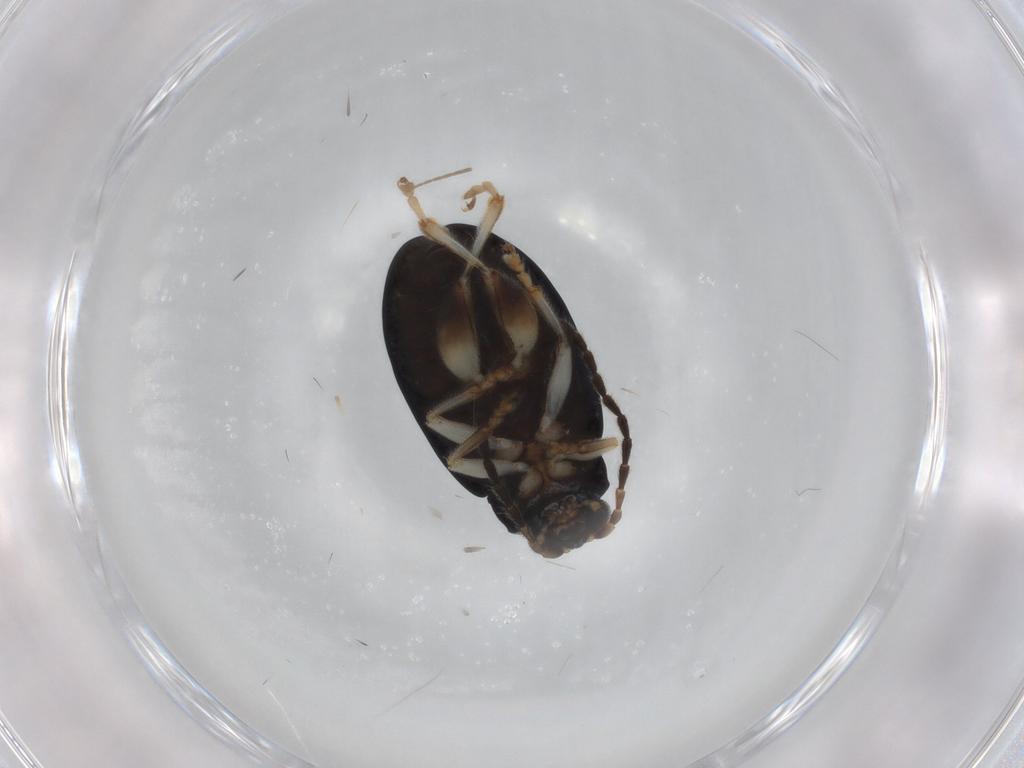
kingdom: Animalia
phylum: Arthropoda
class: Insecta
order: Coleoptera
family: Chrysomelidae
